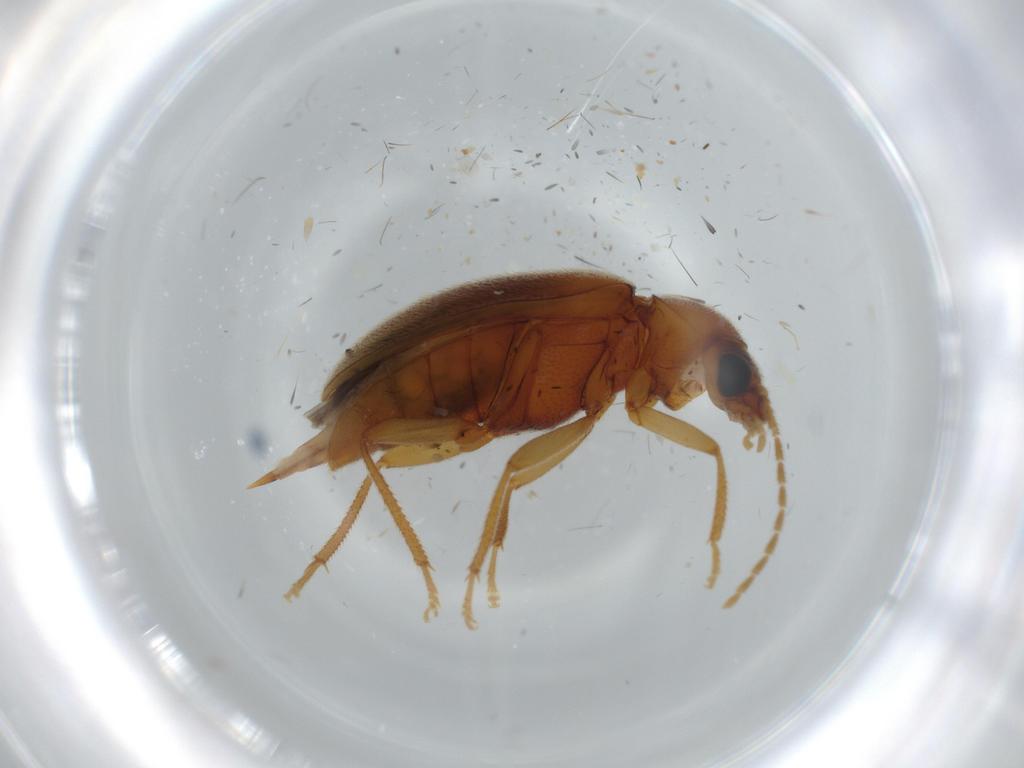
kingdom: Animalia
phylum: Arthropoda
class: Insecta
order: Coleoptera
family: Ptilodactylidae
